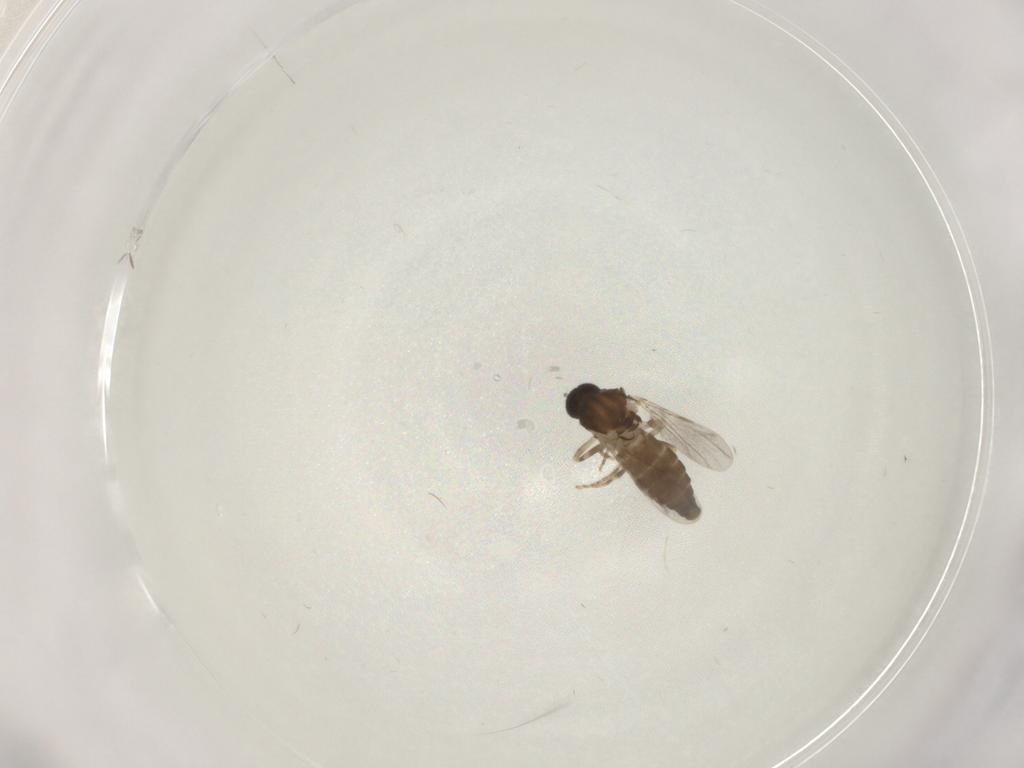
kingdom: Animalia
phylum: Arthropoda
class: Insecta
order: Diptera
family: Ceratopogonidae
